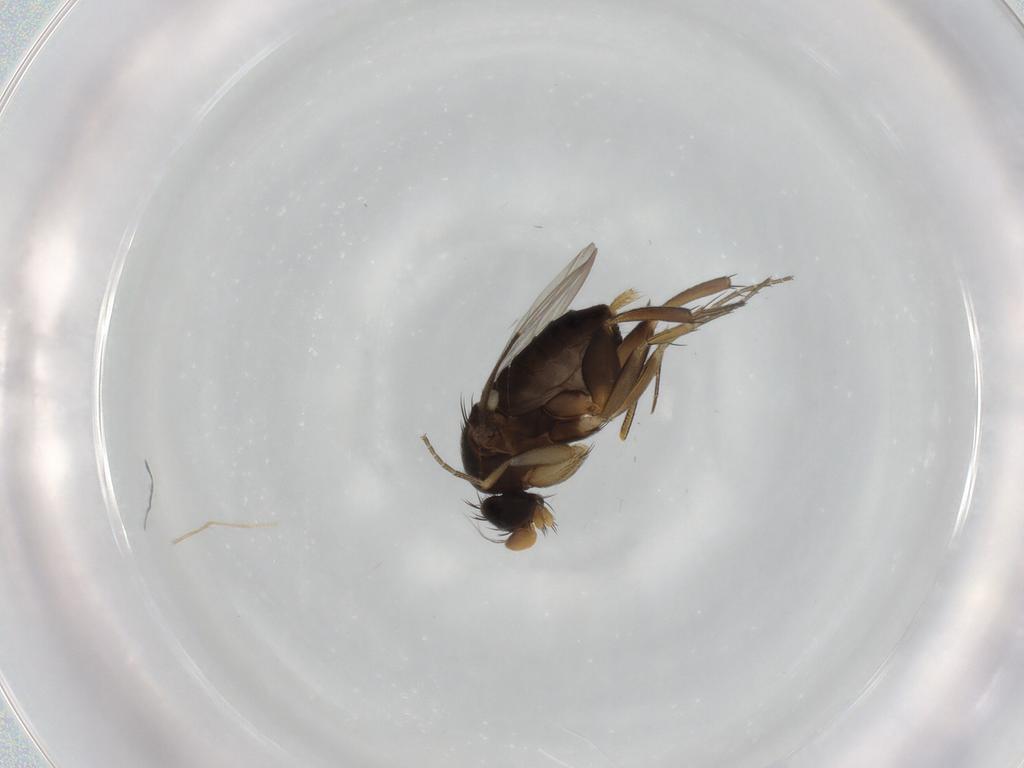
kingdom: Animalia
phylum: Arthropoda
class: Insecta
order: Diptera
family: Phoridae
